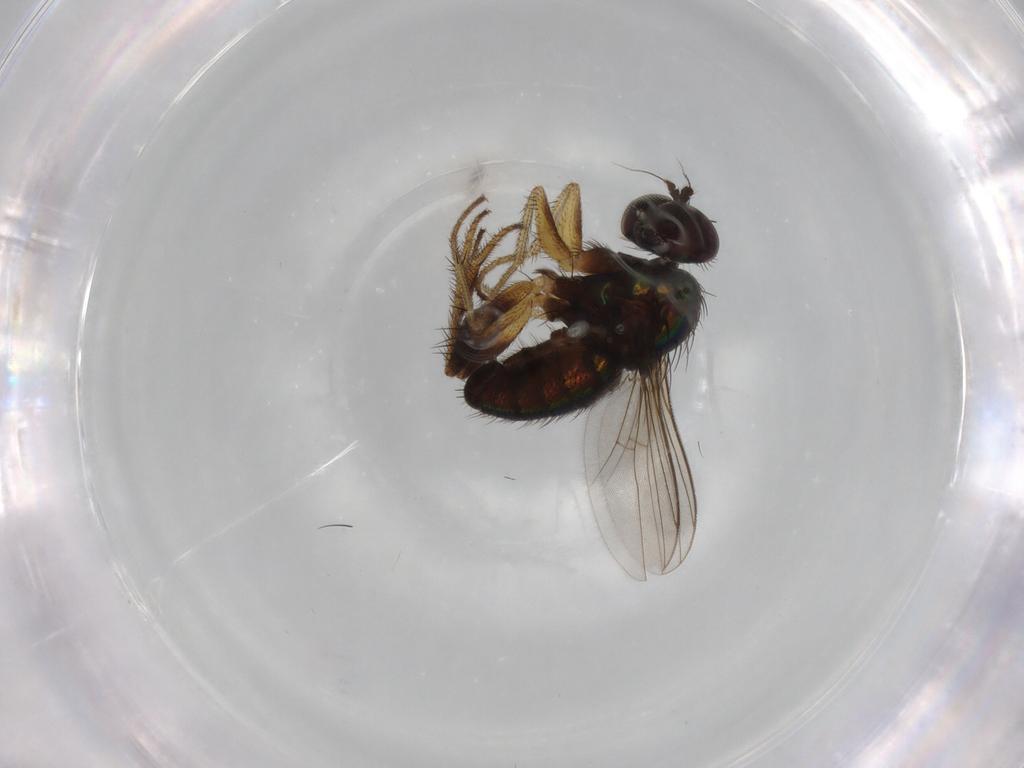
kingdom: Animalia
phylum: Arthropoda
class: Insecta
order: Diptera
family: Dolichopodidae
